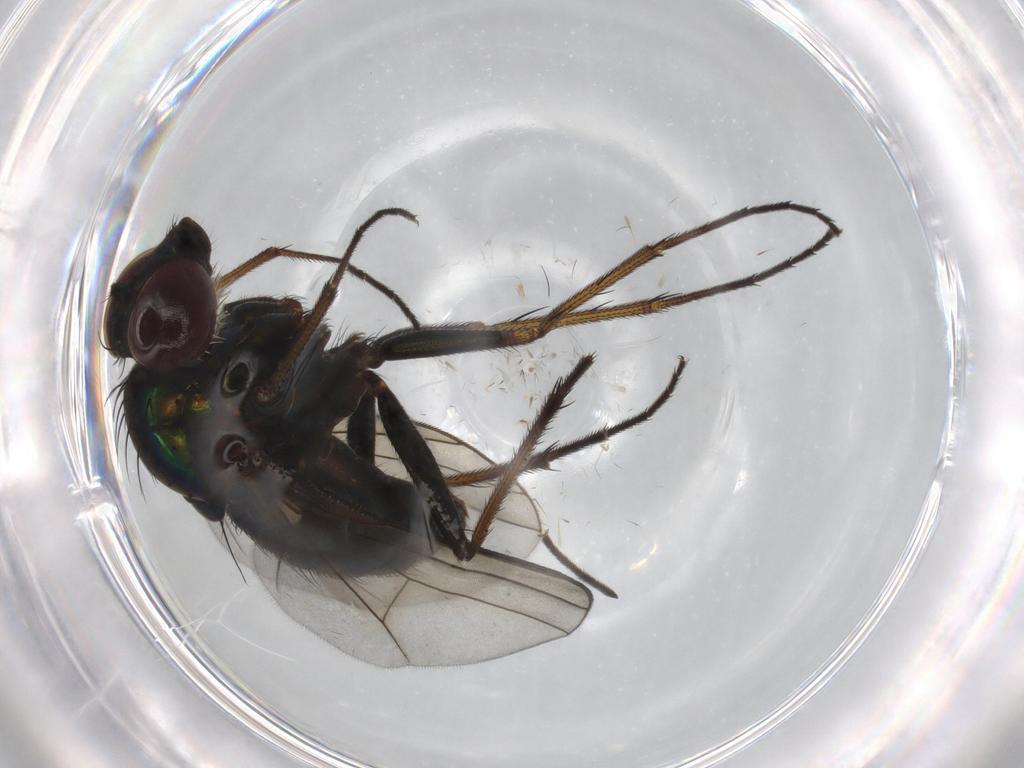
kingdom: Animalia
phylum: Arthropoda
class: Insecta
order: Diptera
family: Dolichopodidae
